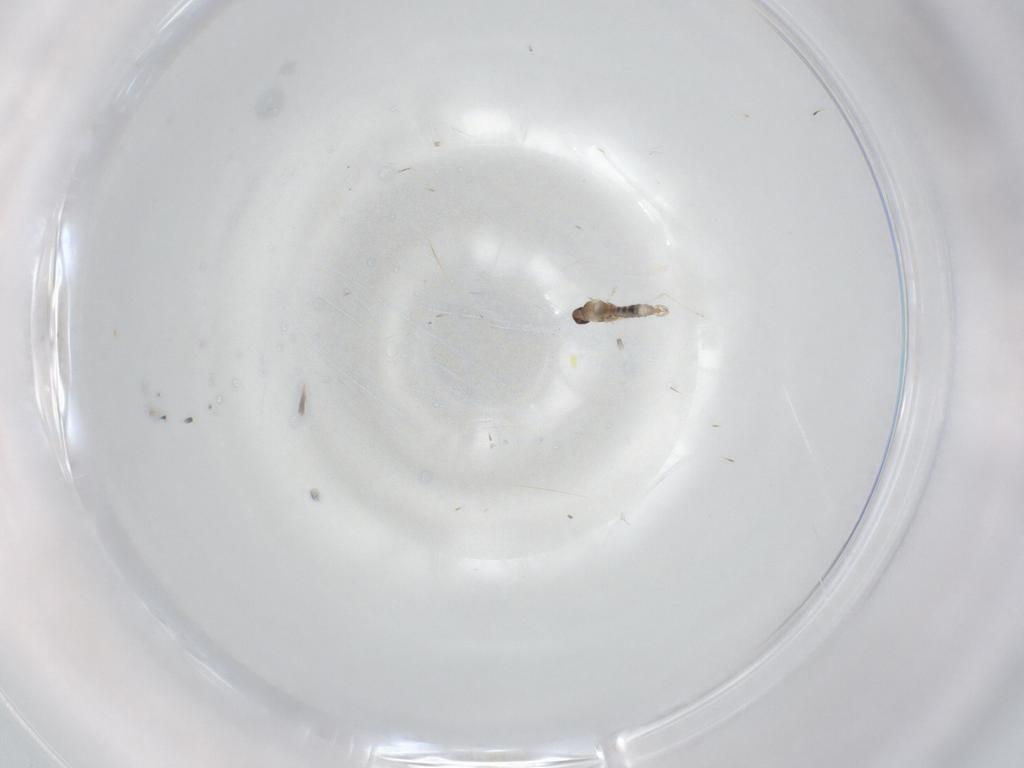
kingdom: Animalia
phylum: Arthropoda
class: Insecta
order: Diptera
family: Cecidomyiidae
